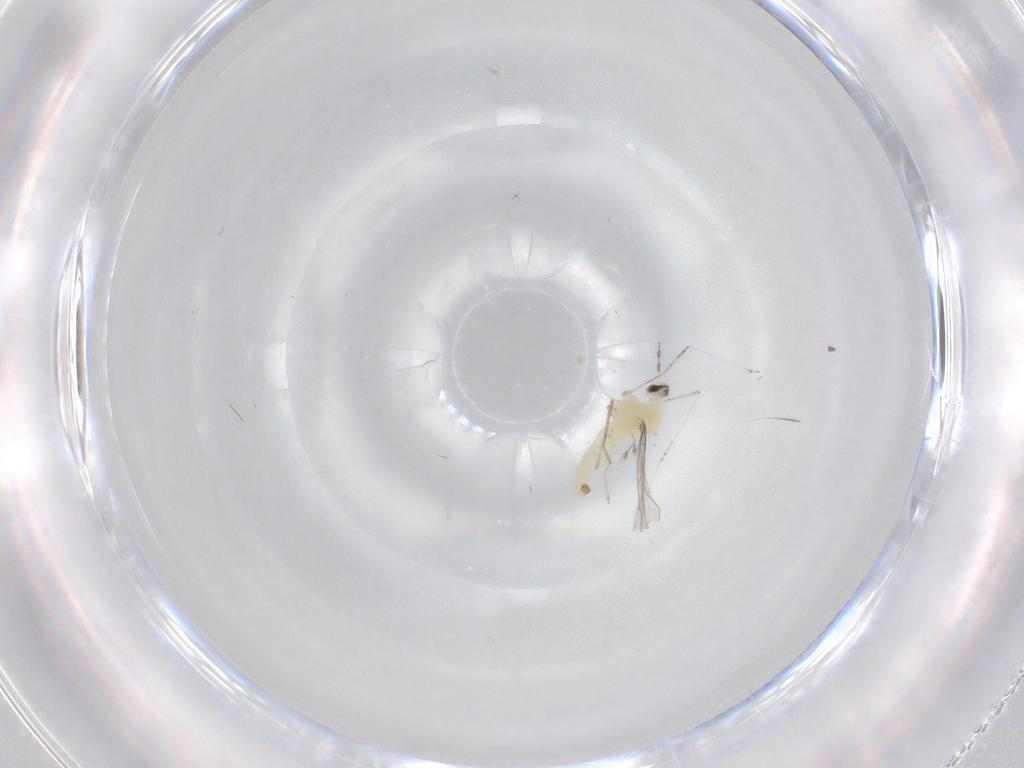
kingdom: Animalia
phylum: Arthropoda
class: Insecta
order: Diptera
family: Cecidomyiidae
